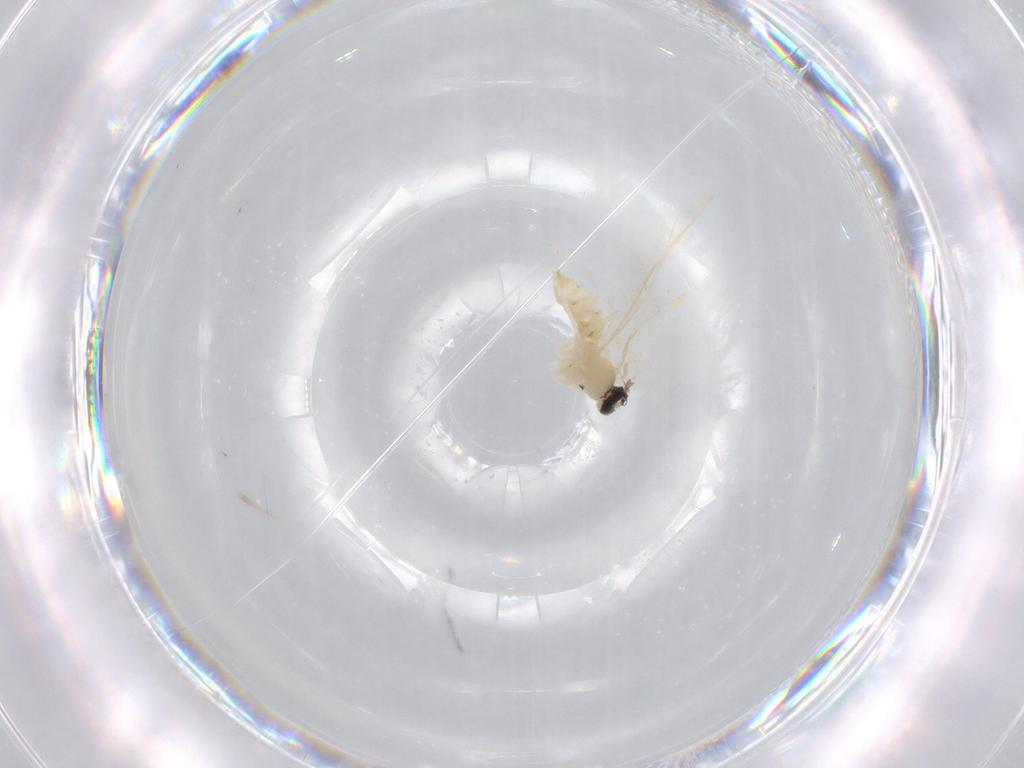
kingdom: Animalia
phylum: Arthropoda
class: Insecta
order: Diptera
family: Cecidomyiidae
